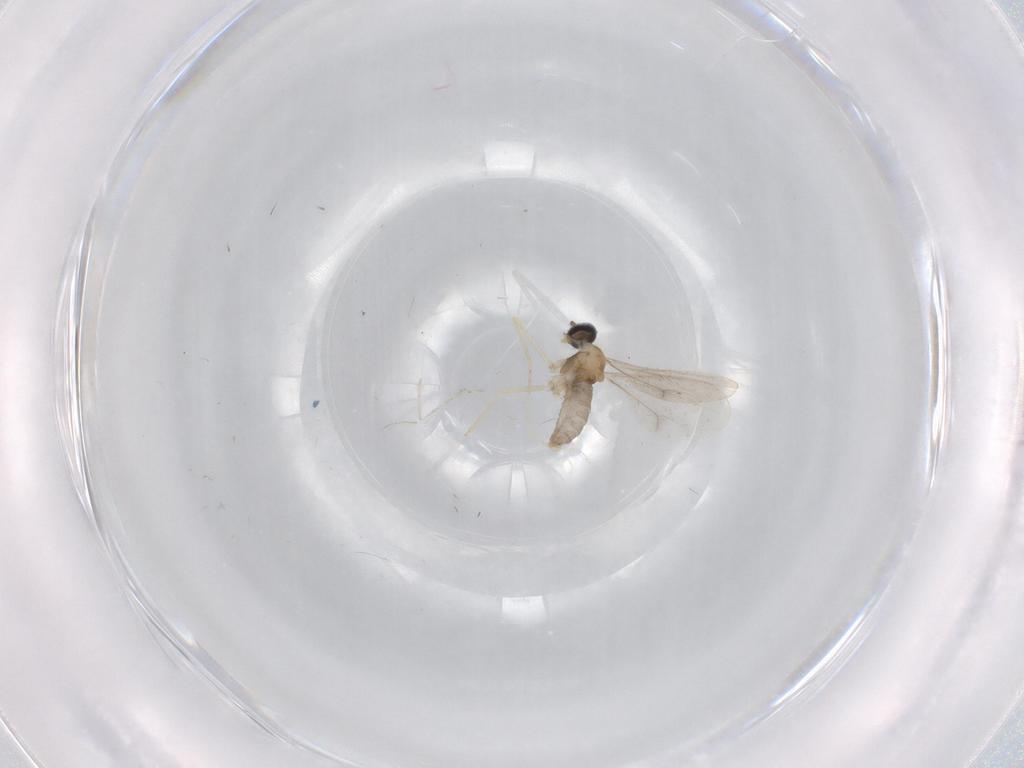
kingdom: Animalia
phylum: Arthropoda
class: Insecta
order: Diptera
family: Cecidomyiidae
